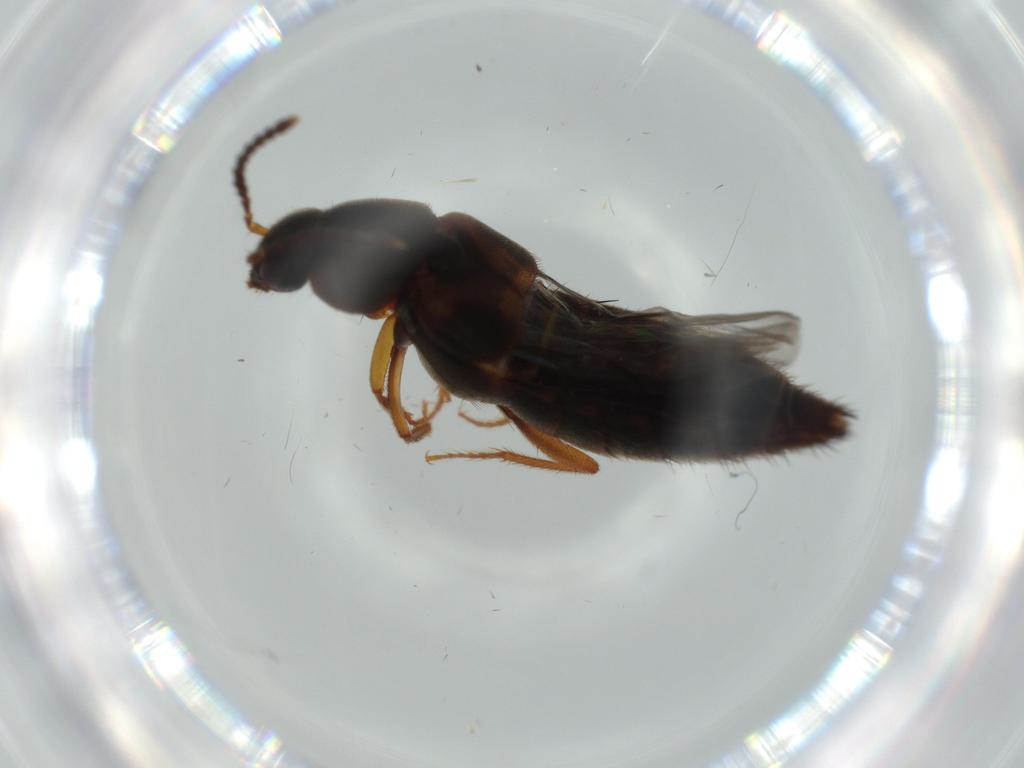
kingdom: Animalia
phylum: Arthropoda
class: Insecta
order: Coleoptera
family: Staphylinidae
